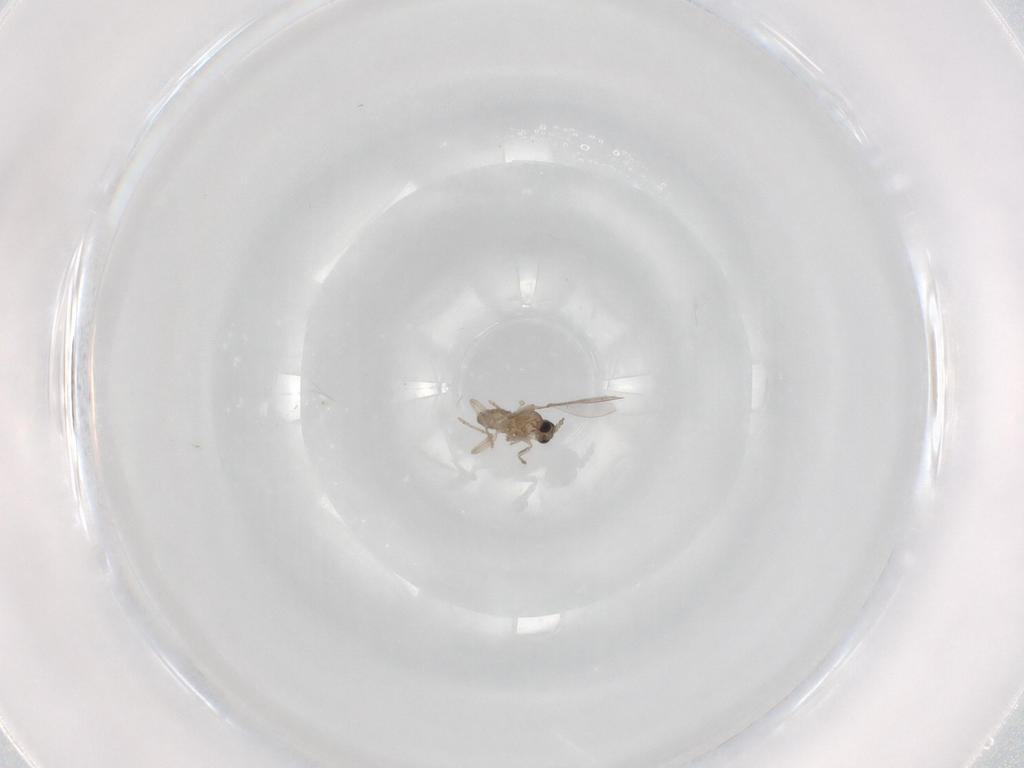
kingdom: Animalia
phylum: Arthropoda
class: Insecta
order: Diptera
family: Cecidomyiidae
